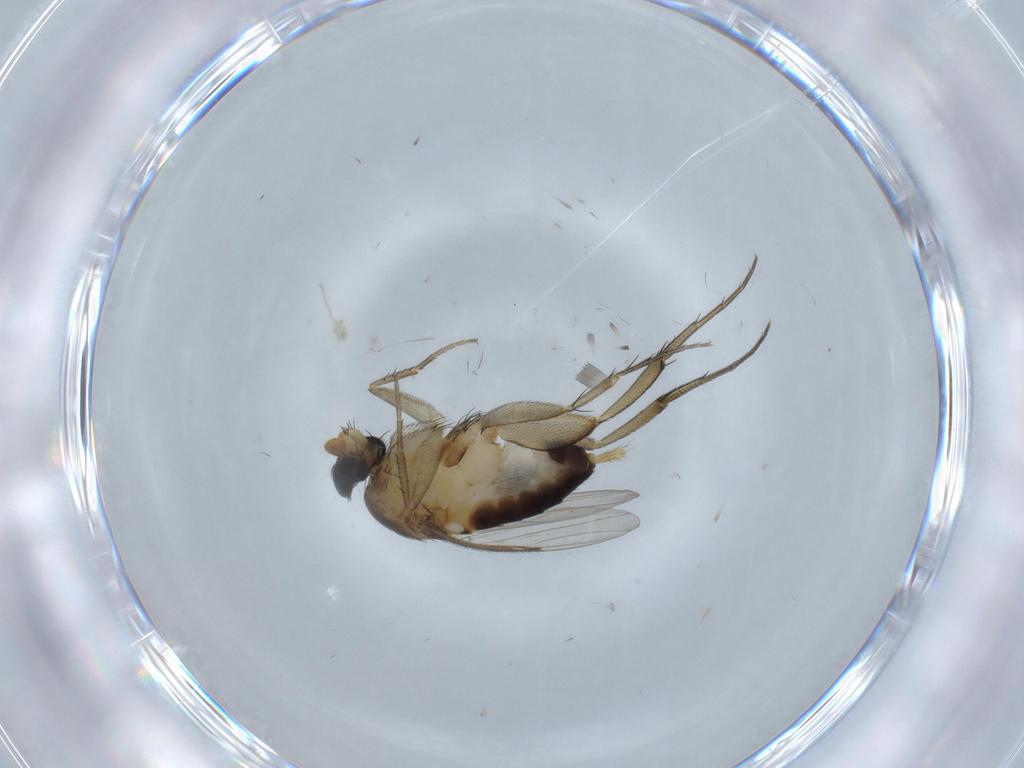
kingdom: Animalia
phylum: Arthropoda
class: Insecta
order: Diptera
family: Phoridae
